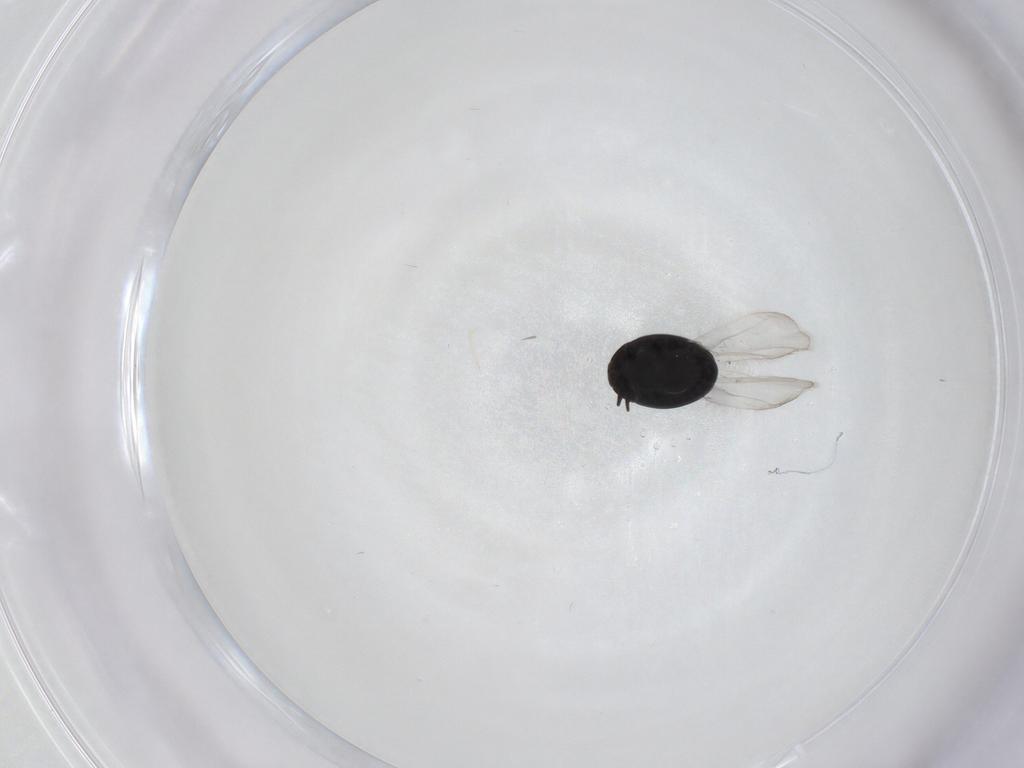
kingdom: Animalia
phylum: Arthropoda
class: Insecta
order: Coleoptera
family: Corylophidae
